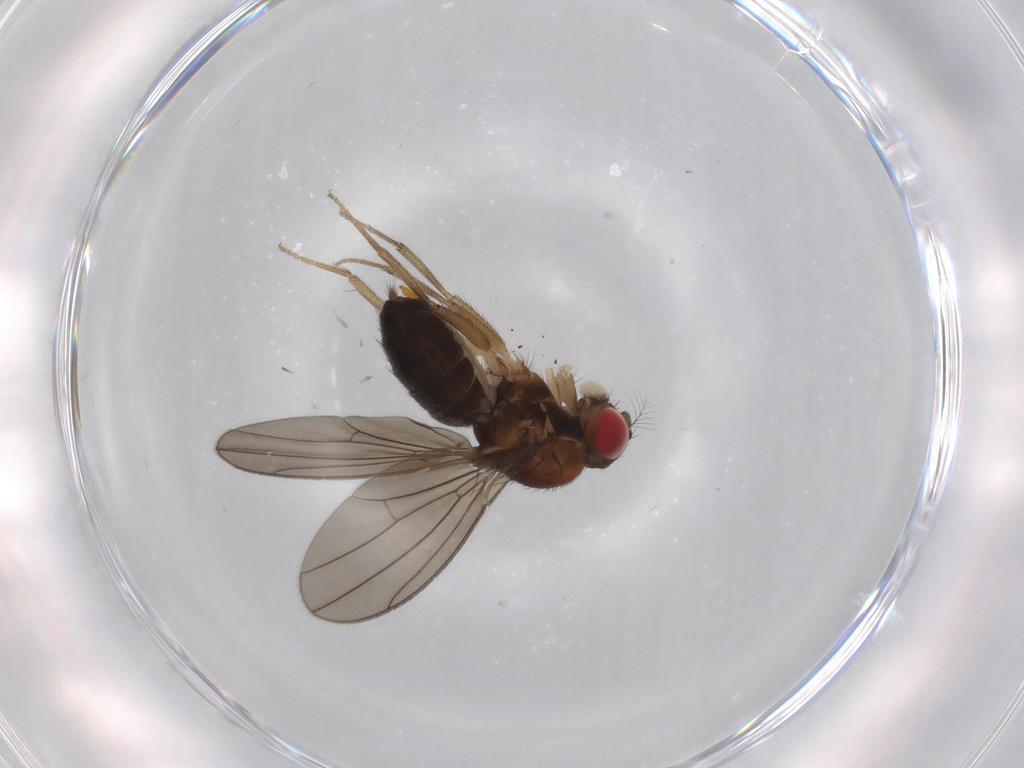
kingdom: Animalia
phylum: Arthropoda
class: Insecta
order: Diptera
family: Drosophilidae
